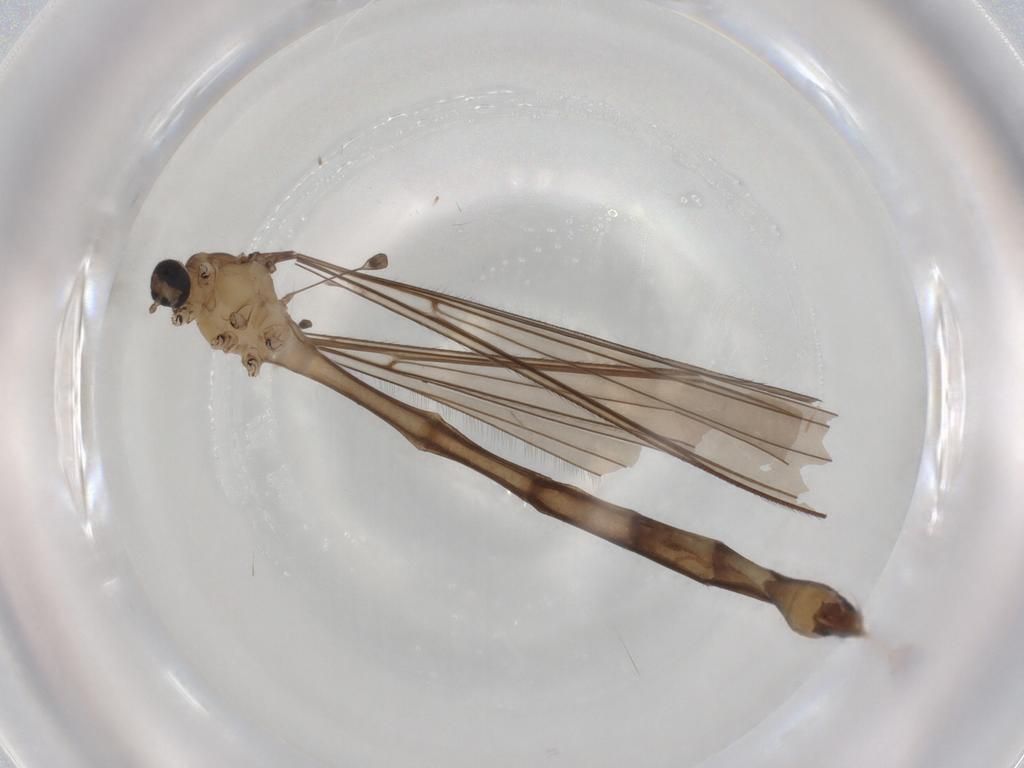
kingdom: Animalia
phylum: Arthropoda
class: Insecta
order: Diptera
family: Limoniidae
